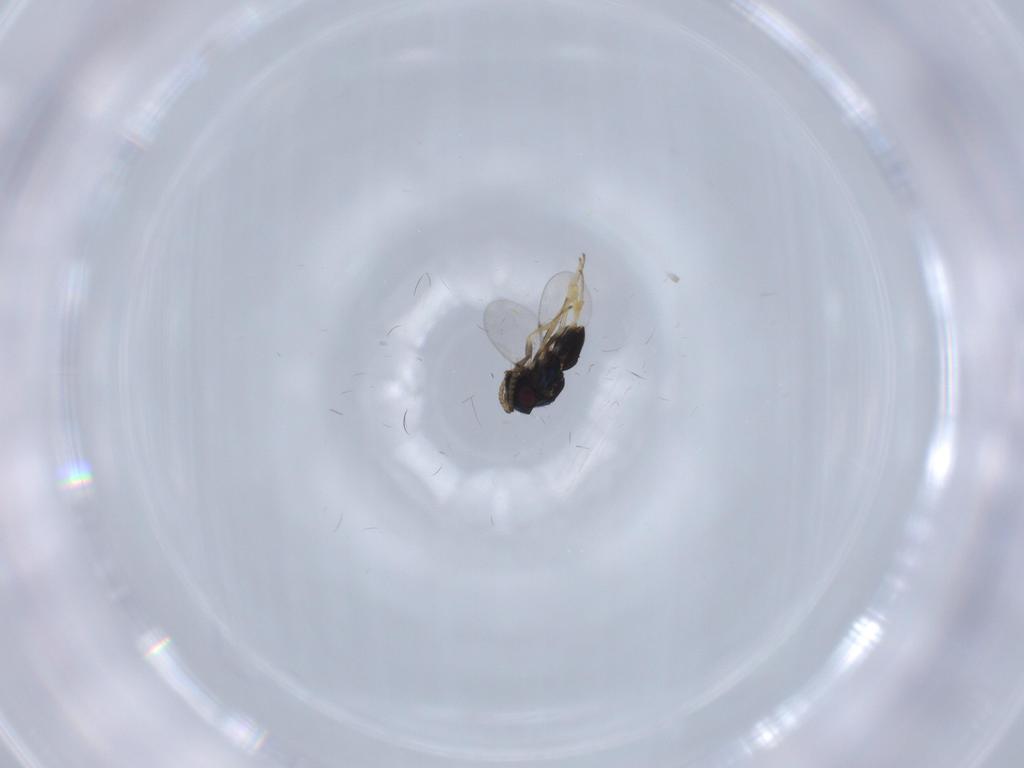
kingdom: Animalia
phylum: Arthropoda
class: Insecta
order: Hymenoptera
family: Encyrtidae
